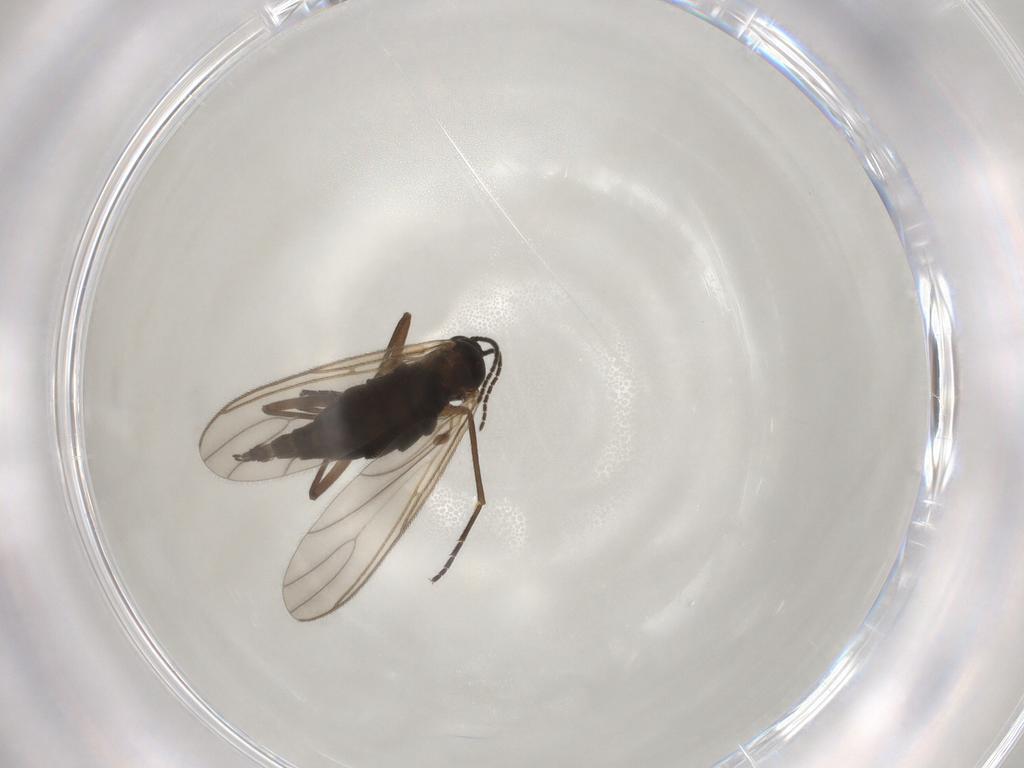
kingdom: Animalia
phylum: Arthropoda
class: Insecta
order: Diptera
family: Sciaridae
